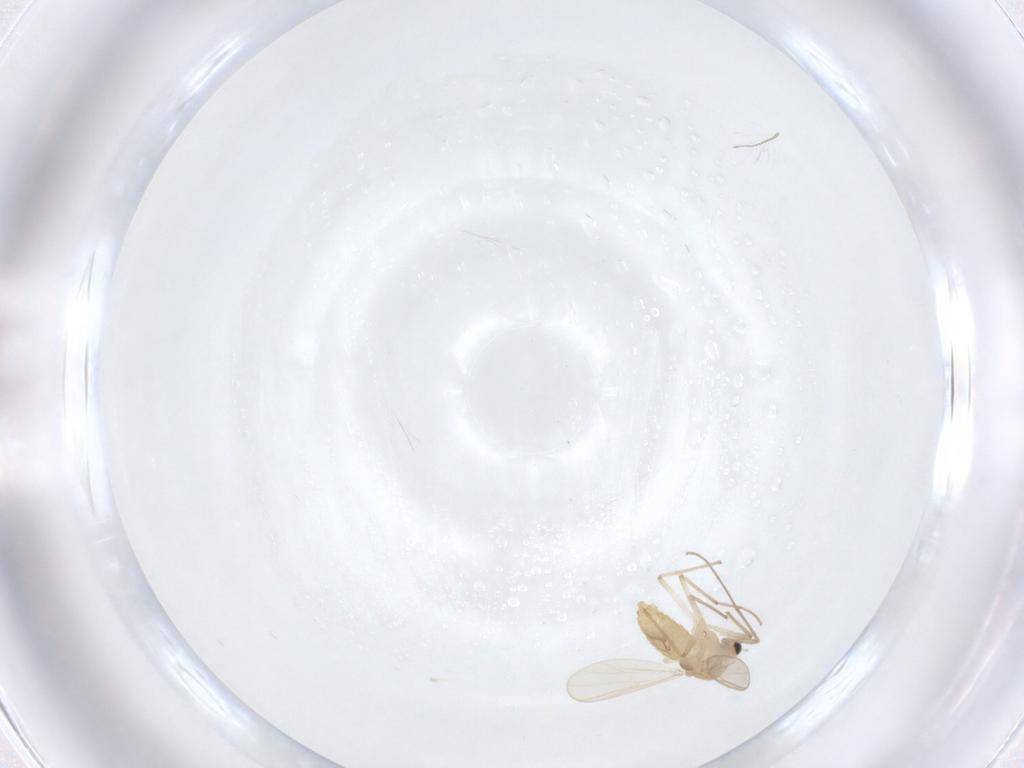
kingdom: Animalia
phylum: Arthropoda
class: Insecta
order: Diptera
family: Chironomidae
